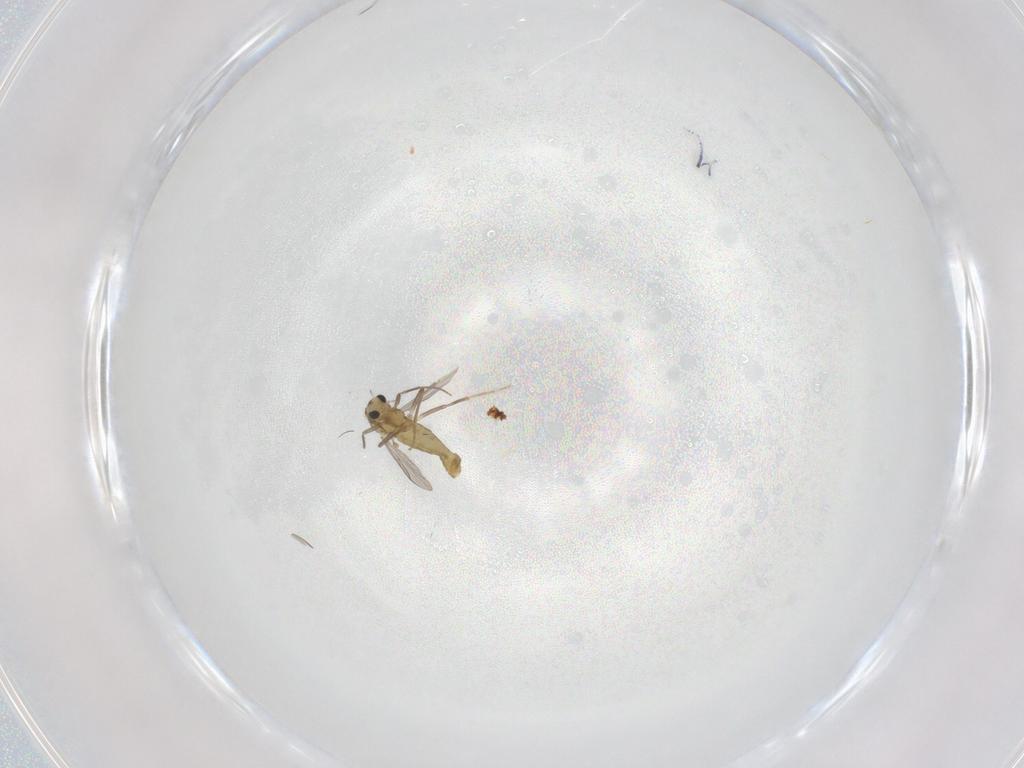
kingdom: Animalia
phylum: Arthropoda
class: Insecta
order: Diptera
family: Chironomidae
